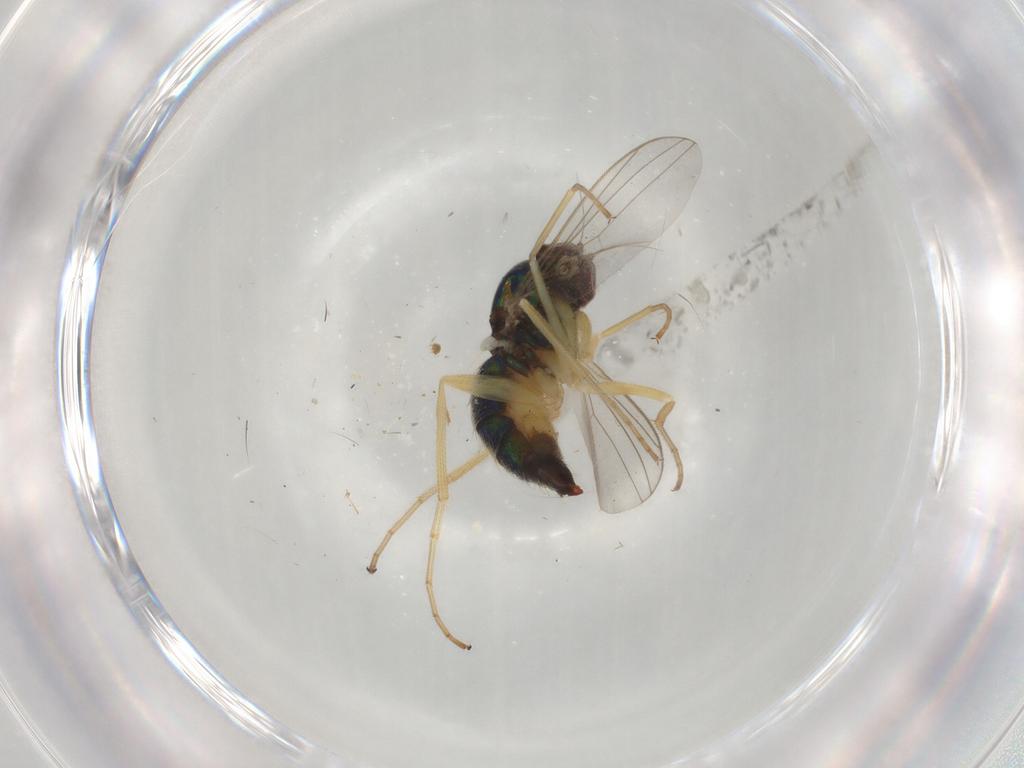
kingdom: Animalia
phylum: Arthropoda
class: Insecta
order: Diptera
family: Dolichopodidae
